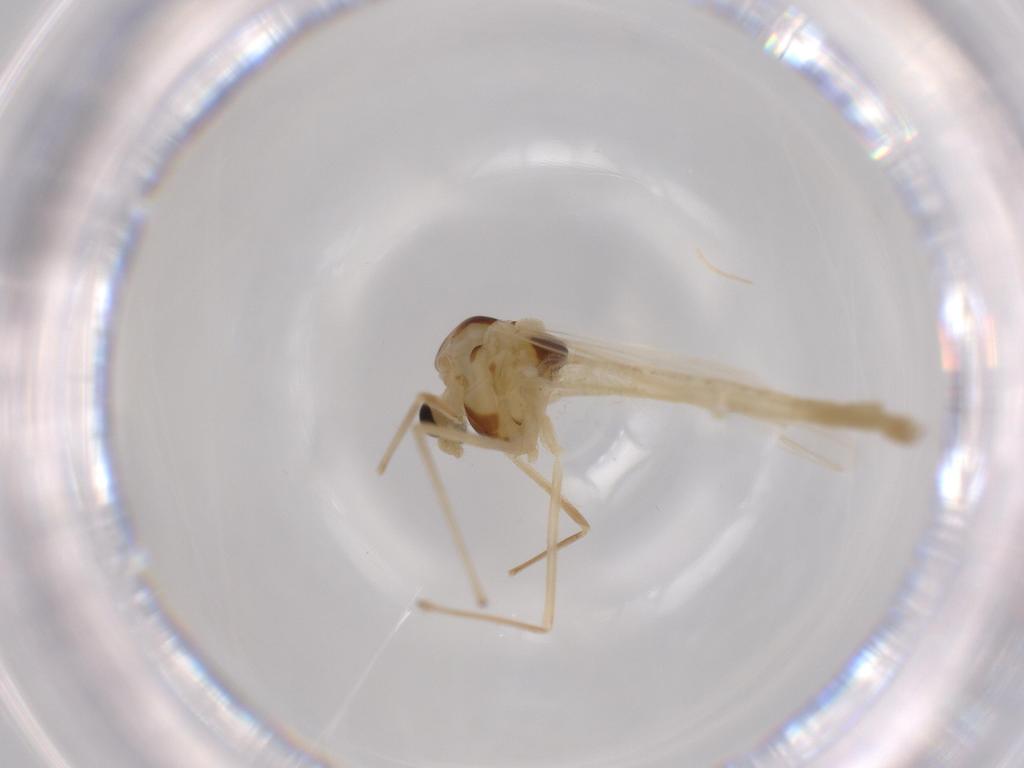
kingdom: Animalia
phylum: Arthropoda
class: Insecta
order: Diptera
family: Chironomidae
